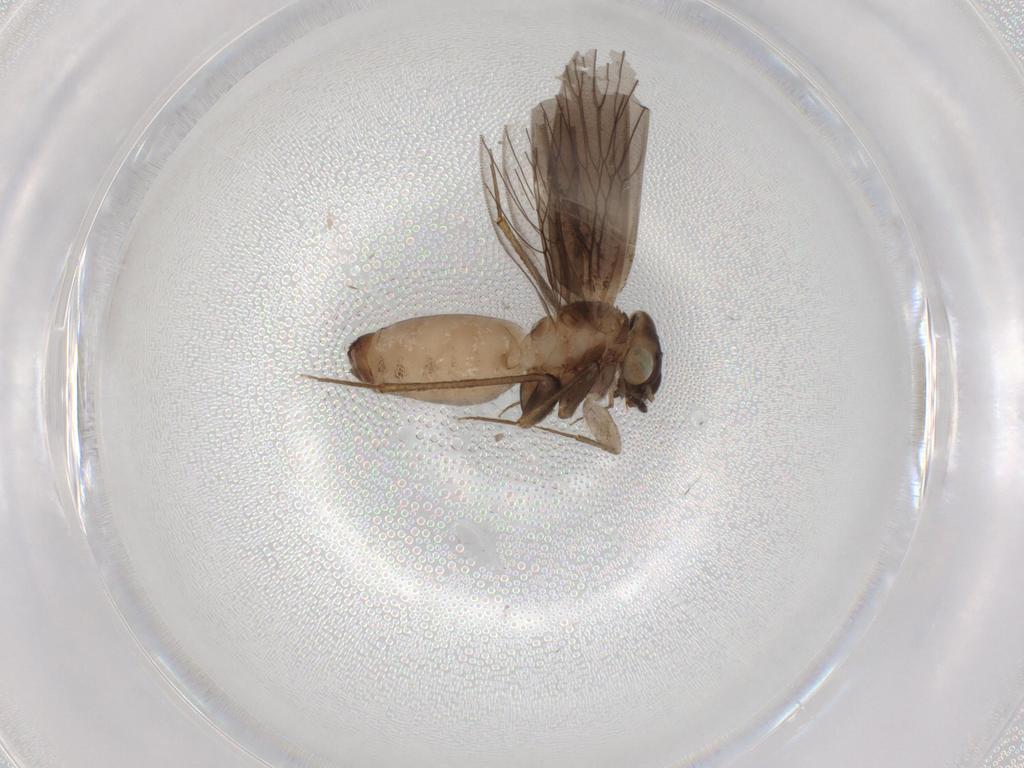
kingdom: Animalia
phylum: Arthropoda
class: Insecta
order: Psocodea
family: Lepidopsocidae
